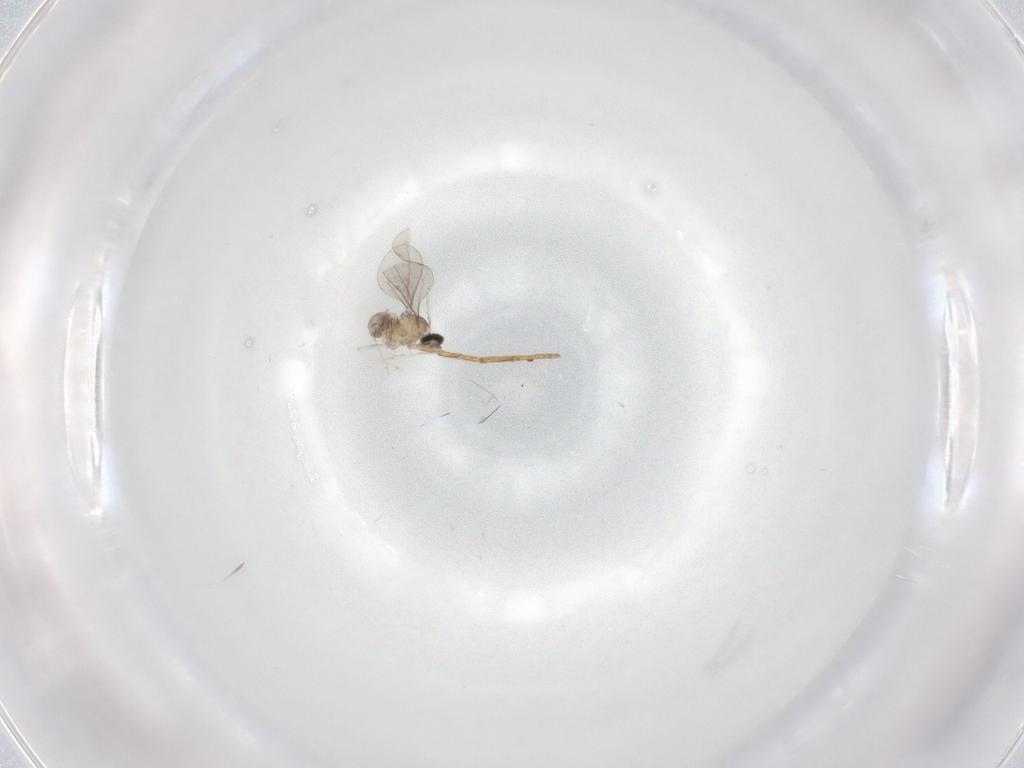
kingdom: Animalia
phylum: Arthropoda
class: Insecta
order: Diptera
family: Cecidomyiidae
